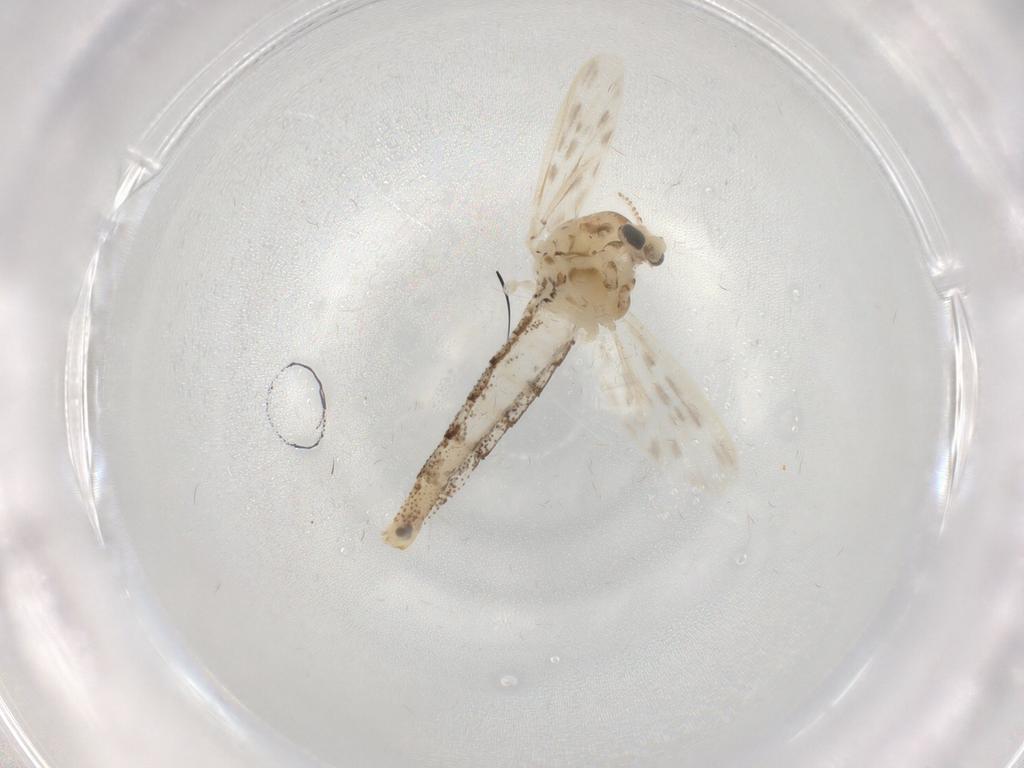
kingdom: Animalia
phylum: Arthropoda
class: Insecta
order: Diptera
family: Chaoboridae
